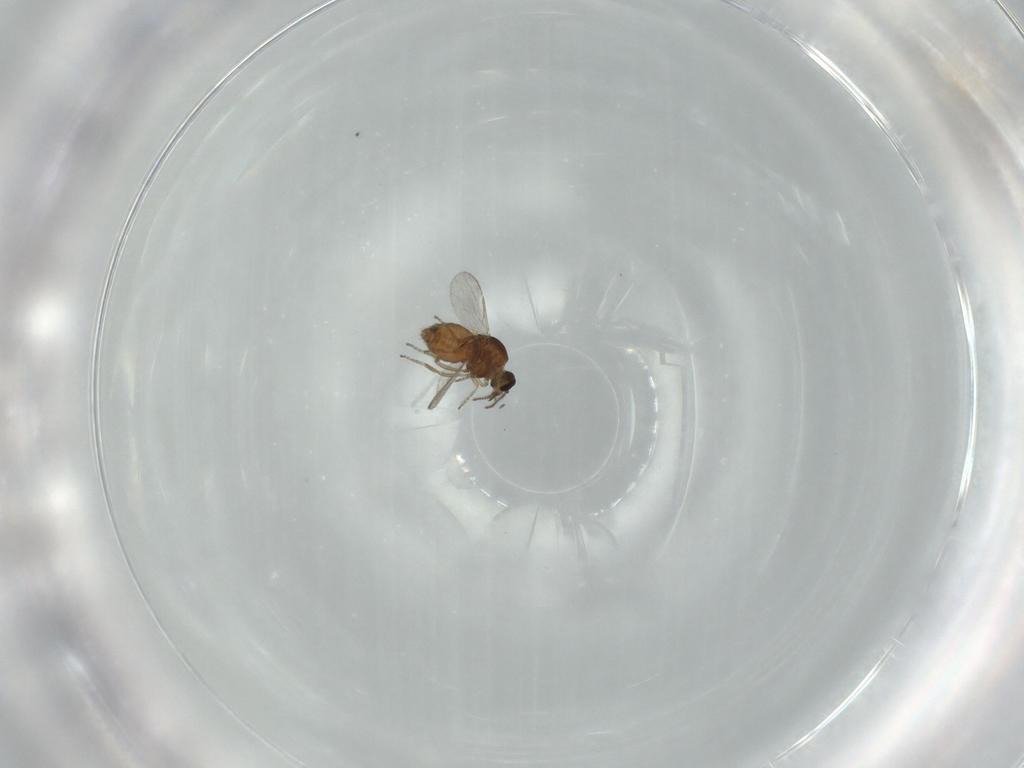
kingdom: Animalia
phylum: Arthropoda
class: Insecta
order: Diptera
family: Ceratopogonidae
